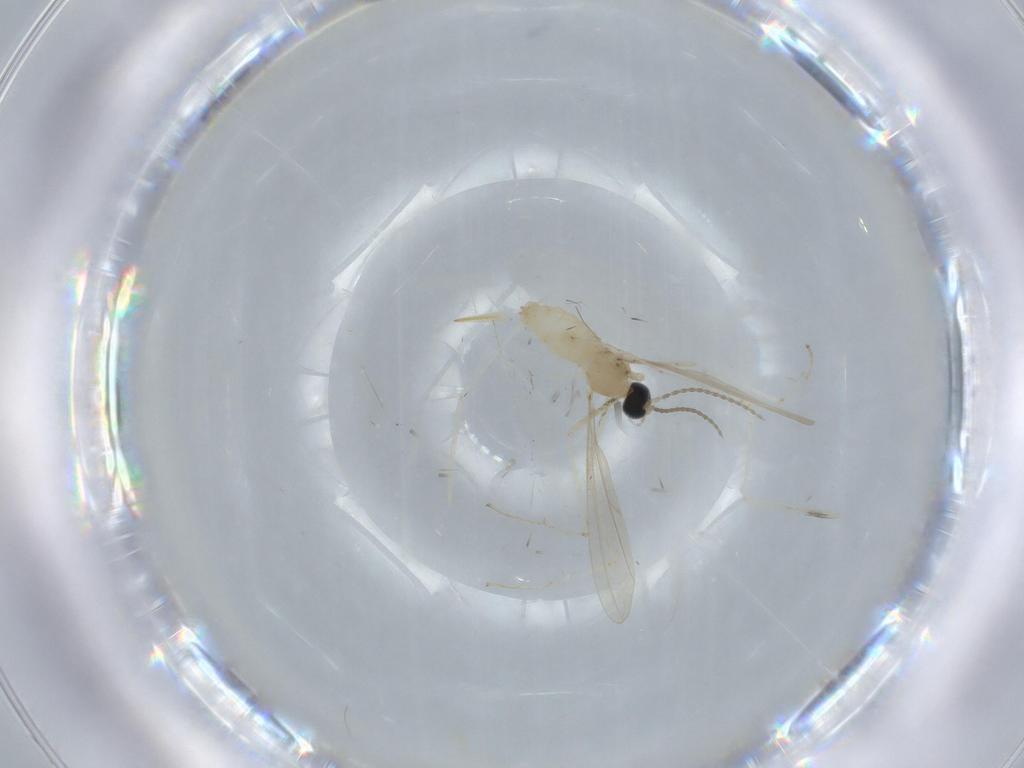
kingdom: Animalia
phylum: Arthropoda
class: Insecta
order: Diptera
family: Cecidomyiidae
